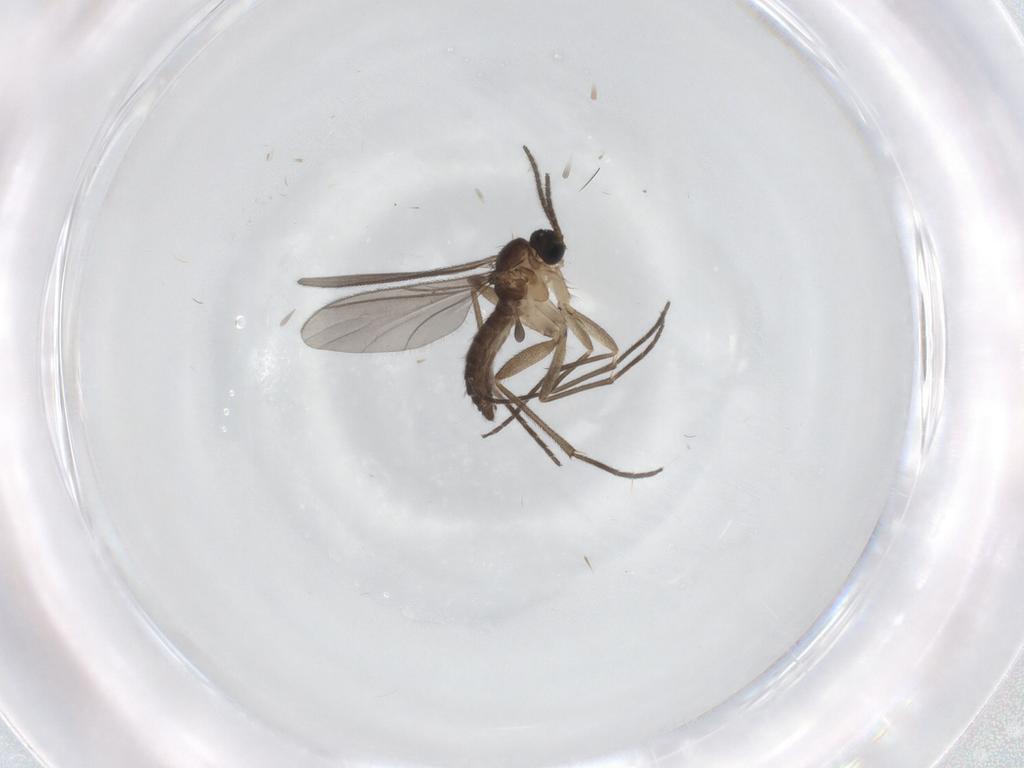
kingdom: Animalia
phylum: Arthropoda
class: Insecta
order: Diptera
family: Sciaridae
